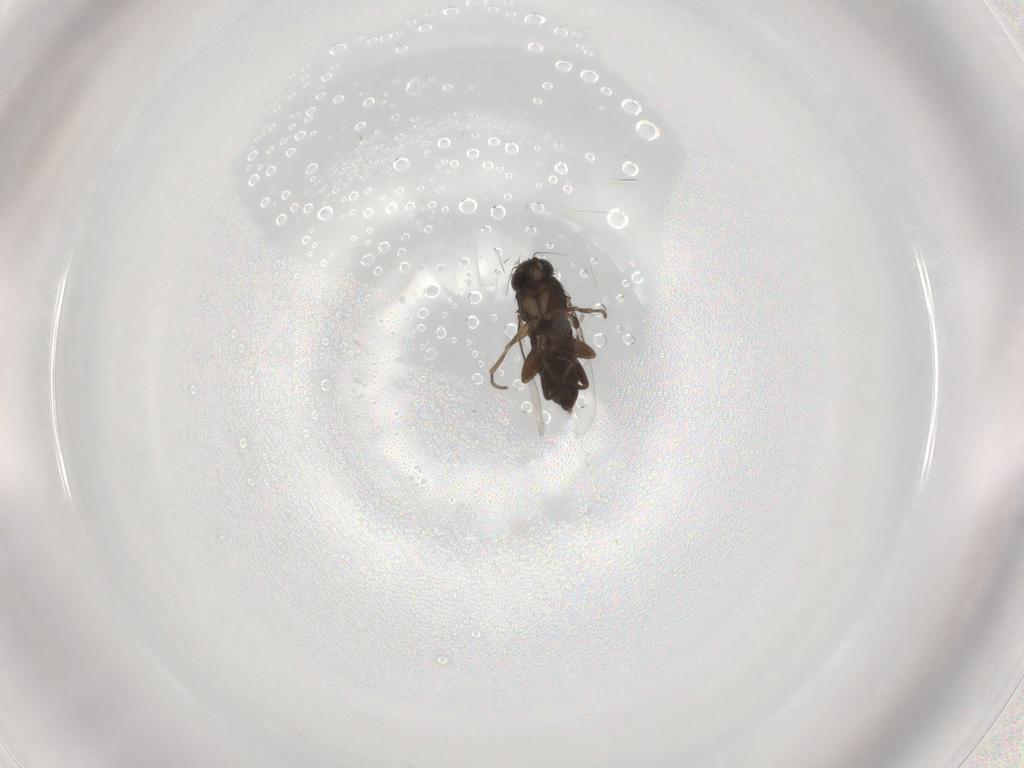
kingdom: Animalia
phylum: Arthropoda
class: Insecta
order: Diptera
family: Phoridae
